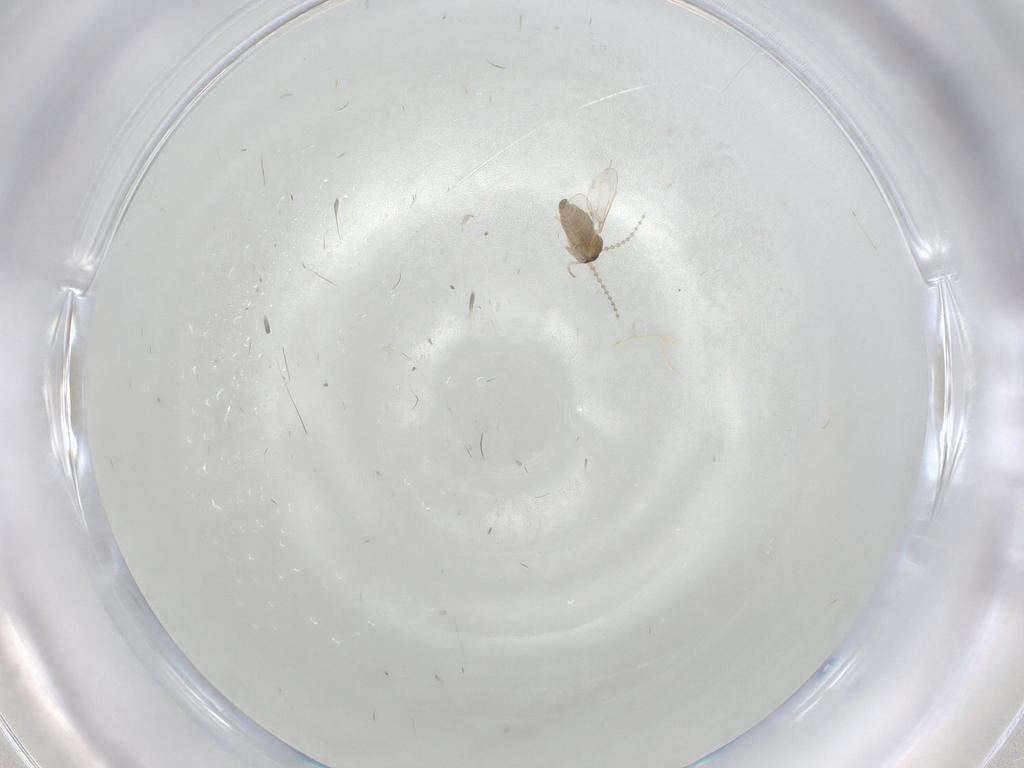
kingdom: Animalia
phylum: Arthropoda
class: Insecta
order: Diptera
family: Cecidomyiidae
